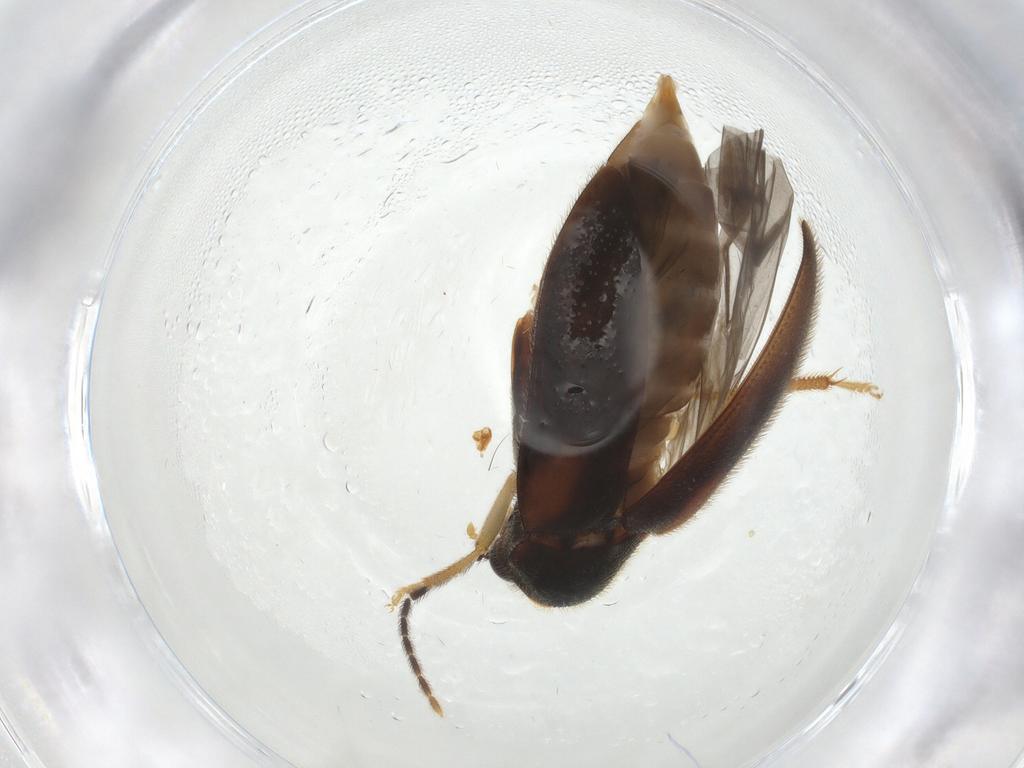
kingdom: Animalia
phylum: Arthropoda
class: Insecta
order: Coleoptera
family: Ptilodactylidae
